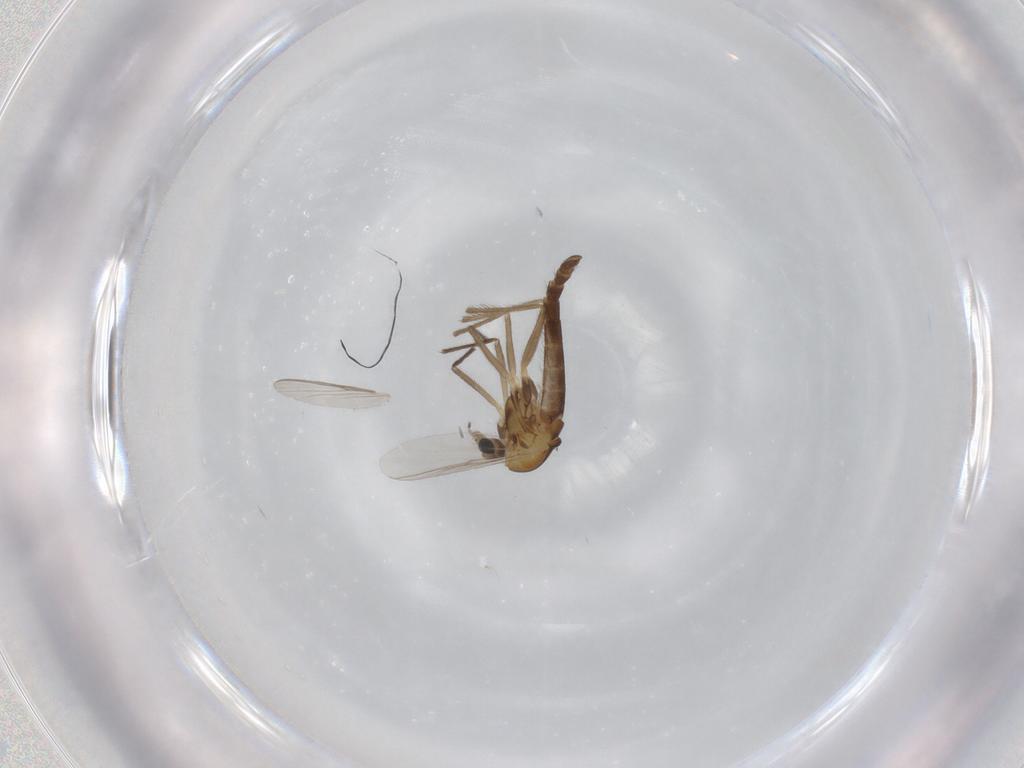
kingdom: Animalia
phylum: Arthropoda
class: Insecta
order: Diptera
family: Chironomidae
